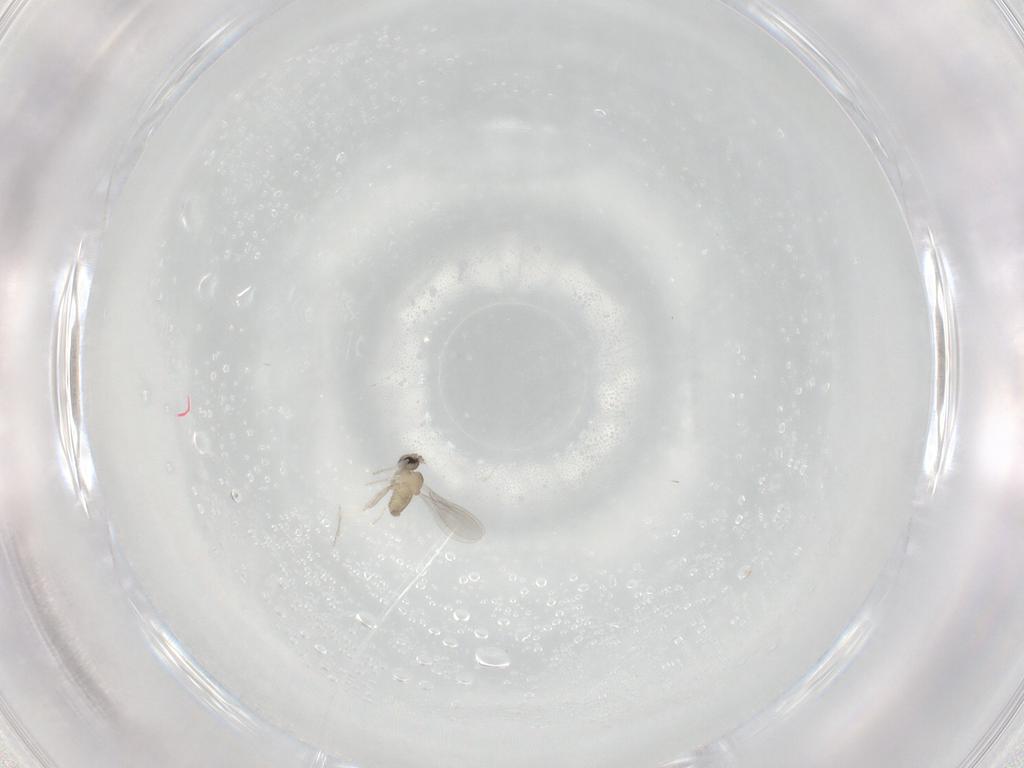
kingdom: Animalia
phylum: Arthropoda
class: Insecta
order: Diptera
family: Cecidomyiidae
